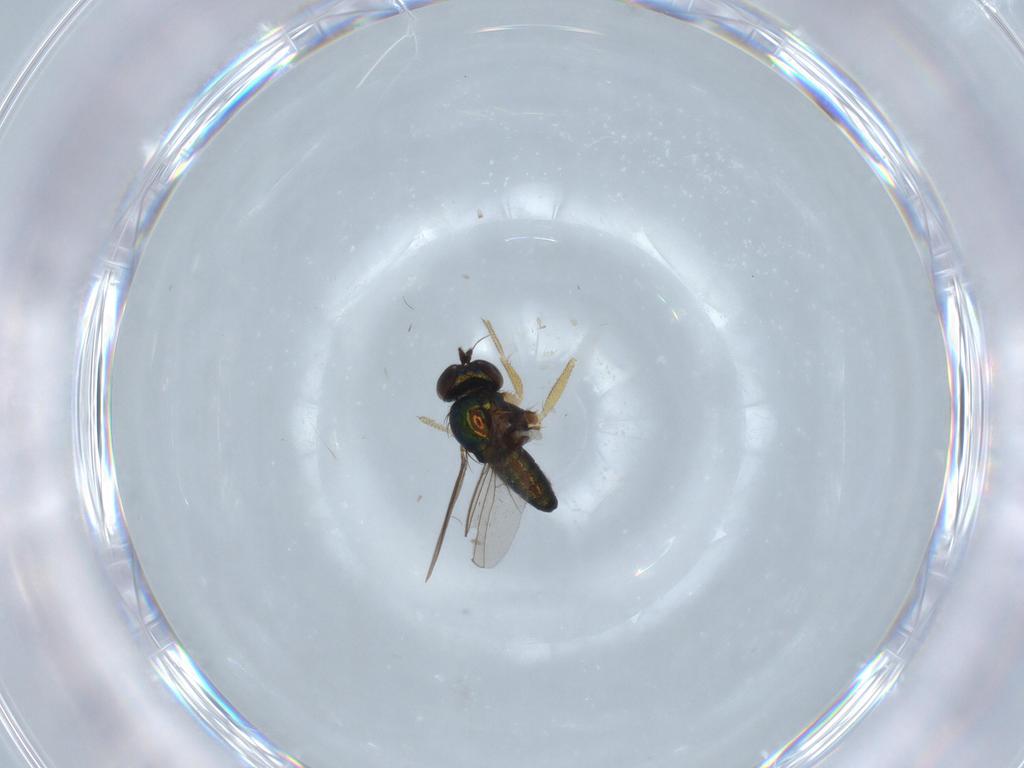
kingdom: Animalia
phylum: Arthropoda
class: Insecta
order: Diptera
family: Dolichopodidae
